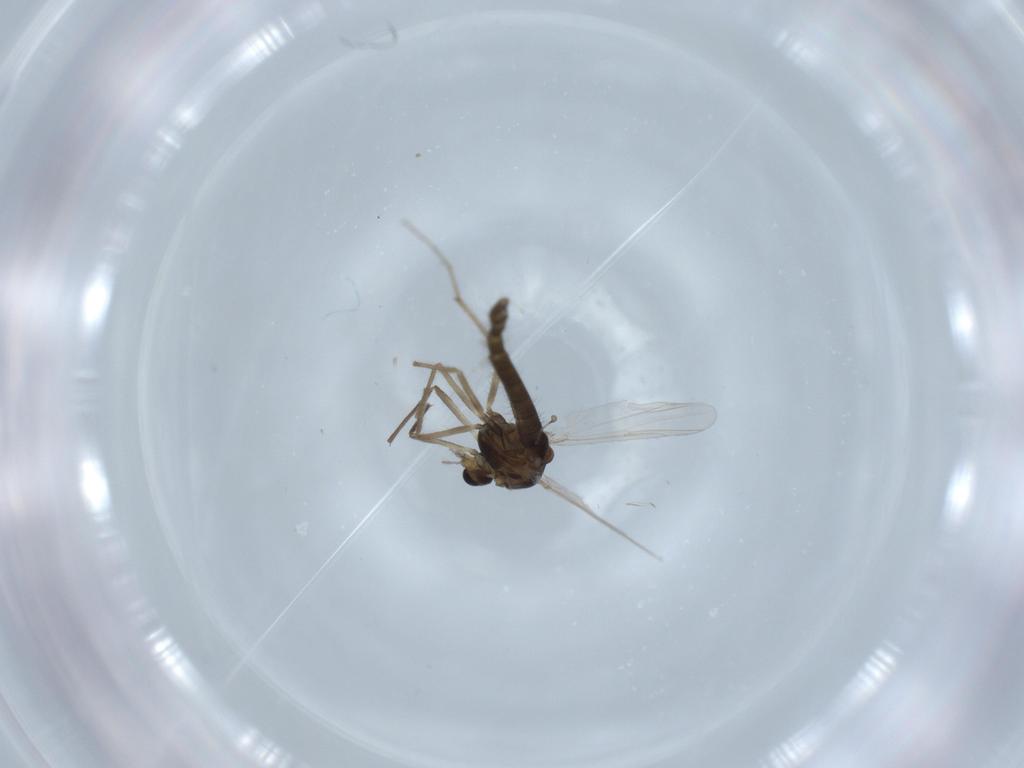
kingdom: Animalia
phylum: Arthropoda
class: Insecta
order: Diptera
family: Chironomidae
